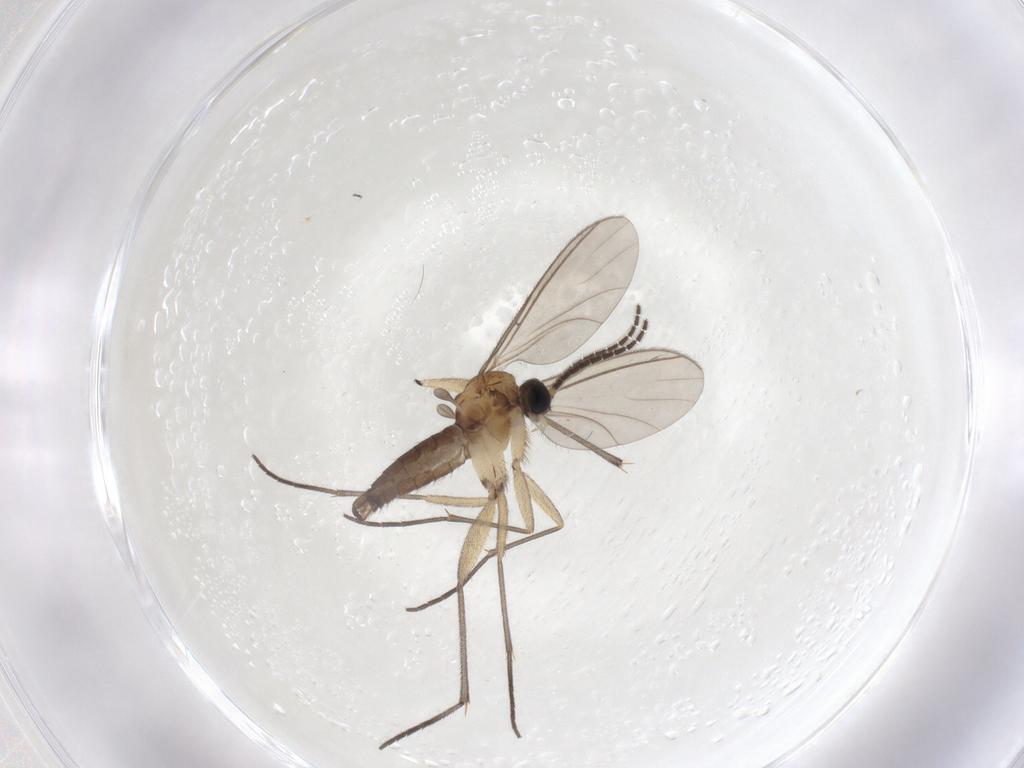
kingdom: Animalia
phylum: Arthropoda
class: Insecta
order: Diptera
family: Sciaridae
